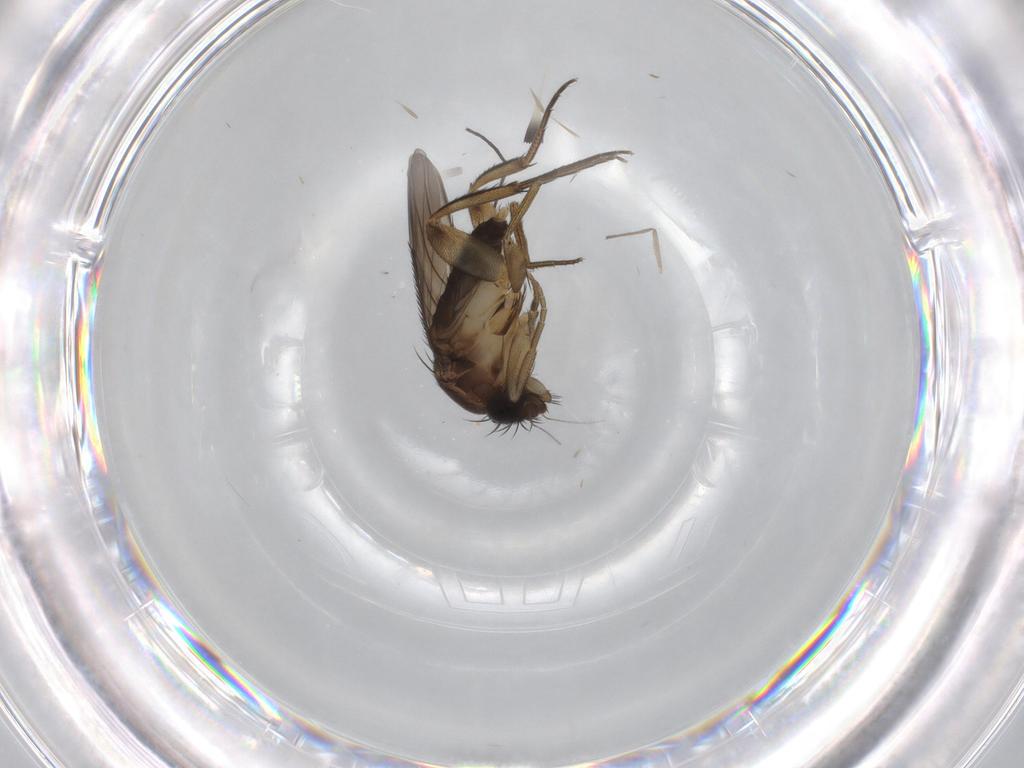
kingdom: Animalia
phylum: Arthropoda
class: Insecta
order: Diptera
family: Phoridae
